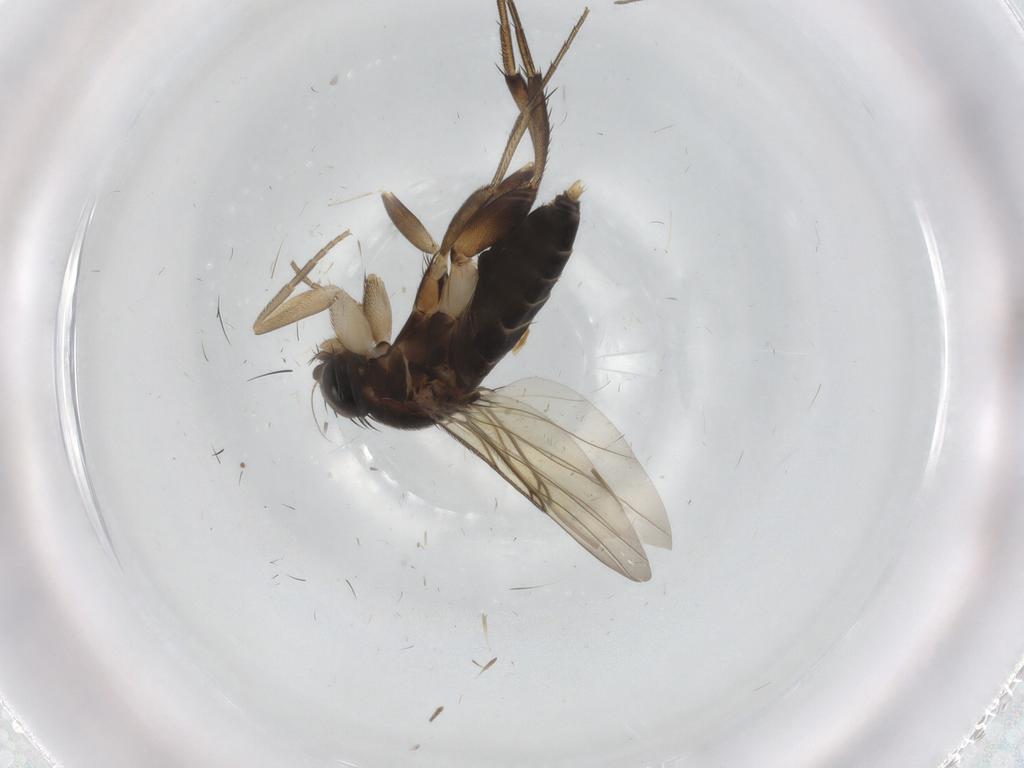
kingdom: Animalia
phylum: Arthropoda
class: Insecta
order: Diptera
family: Phoridae
